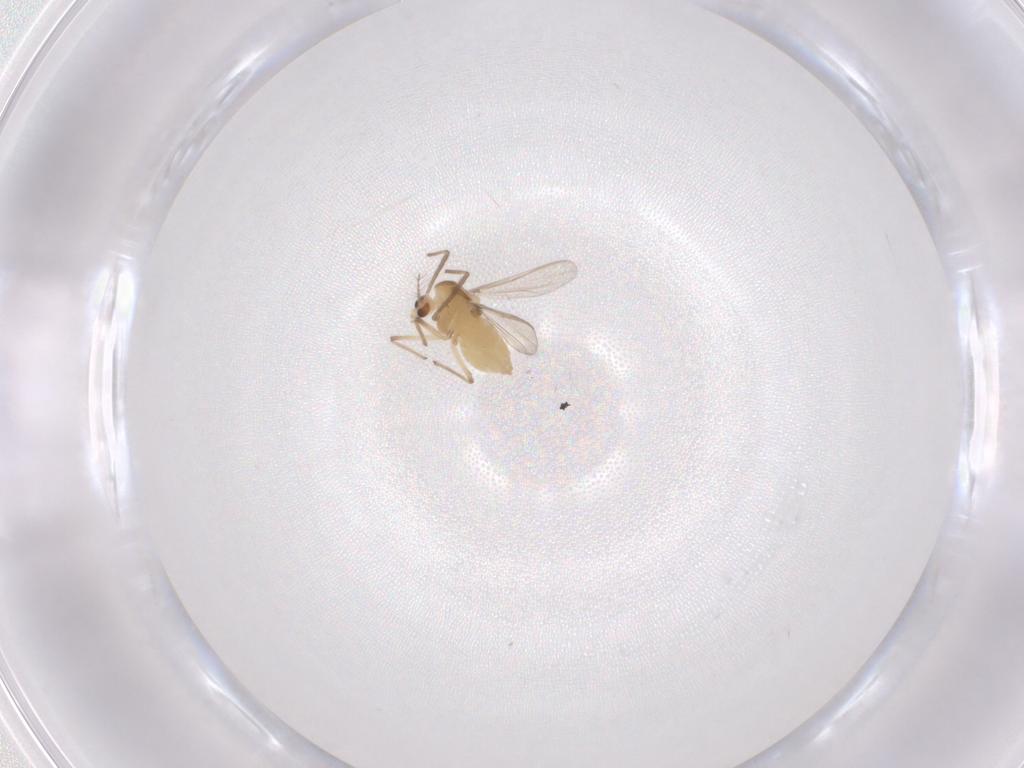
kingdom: Animalia
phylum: Arthropoda
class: Insecta
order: Diptera
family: Chironomidae
